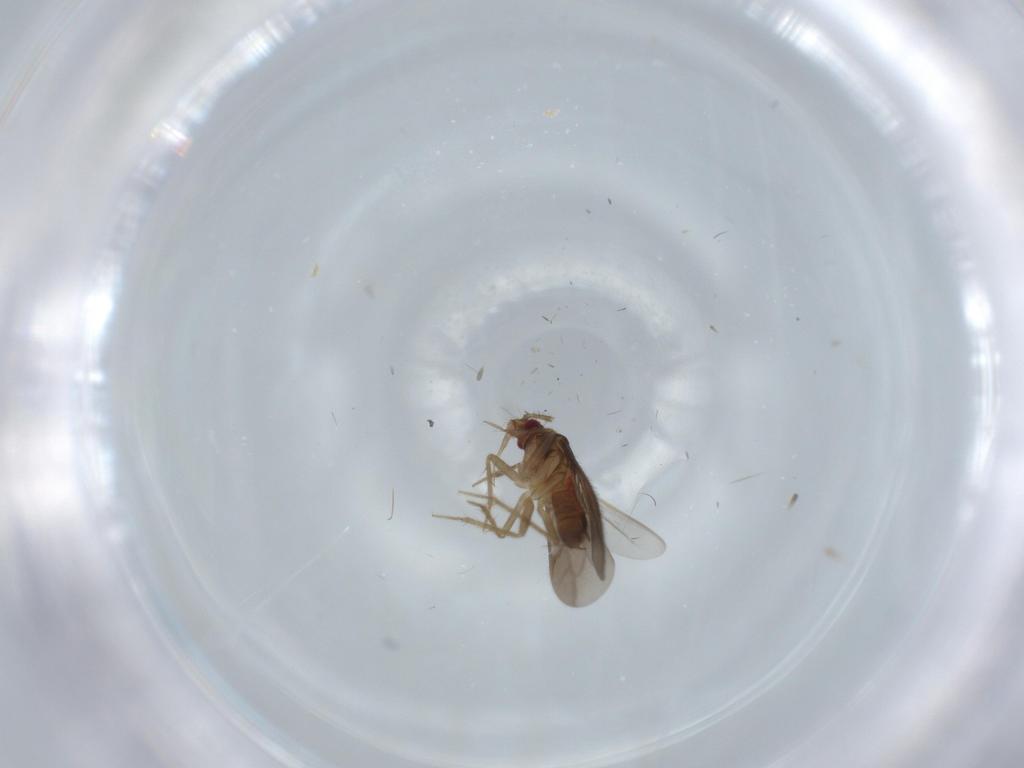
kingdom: Animalia
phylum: Arthropoda
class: Insecta
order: Hemiptera
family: Ceratocombidae
